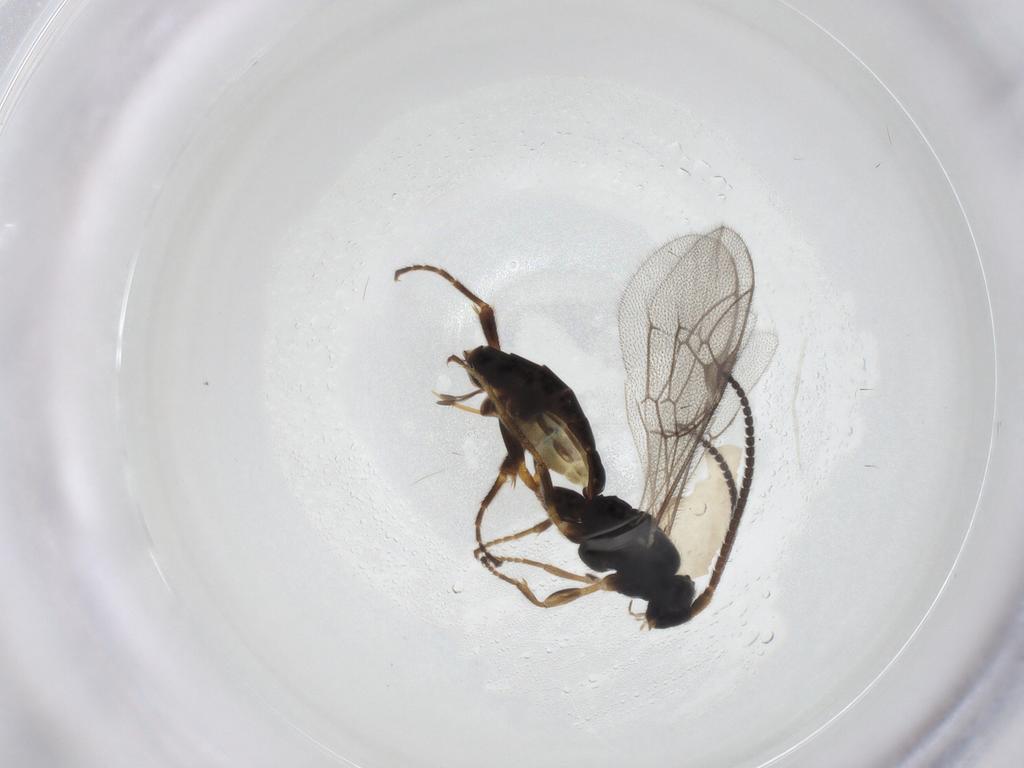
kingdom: Animalia
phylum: Arthropoda
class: Insecta
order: Hymenoptera
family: Ichneumonidae
